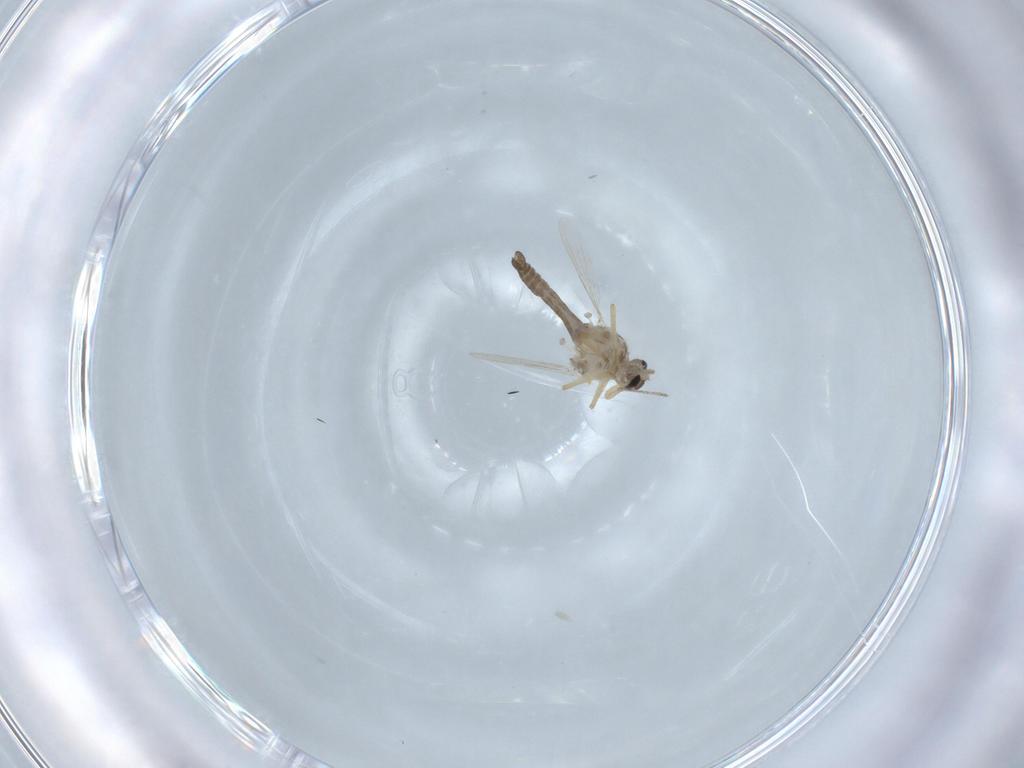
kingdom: Animalia
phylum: Arthropoda
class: Insecta
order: Diptera
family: Ceratopogonidae
